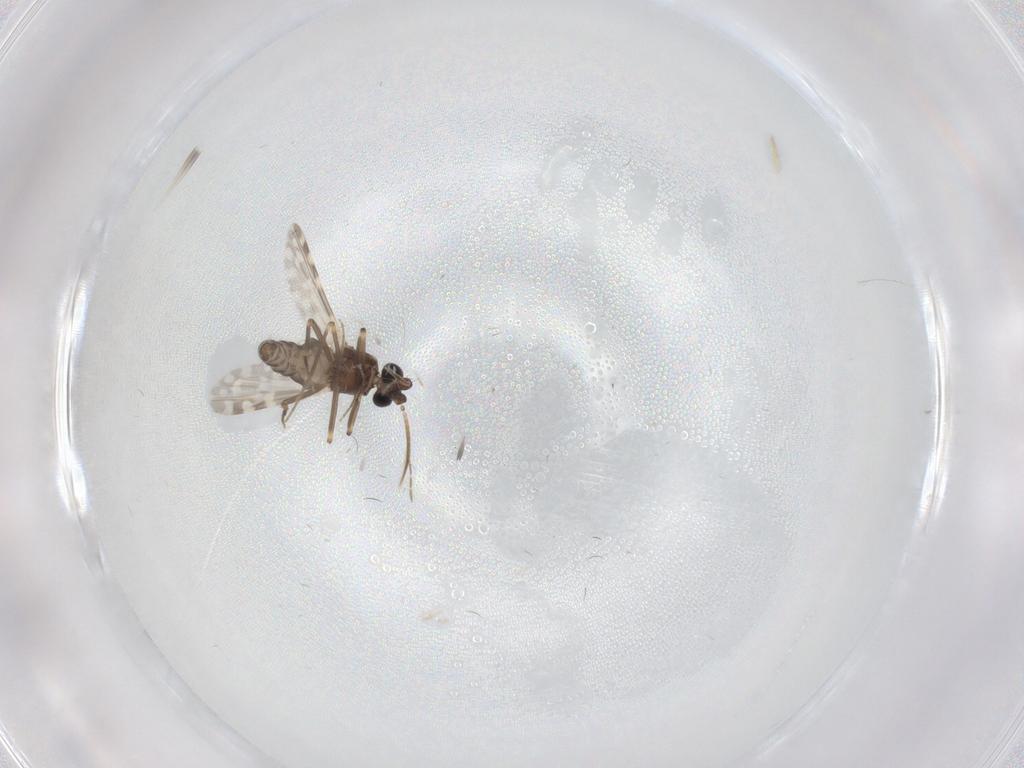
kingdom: Animalia
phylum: Arthropoda
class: Insecta
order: Diptera
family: Ceratopogonidae
